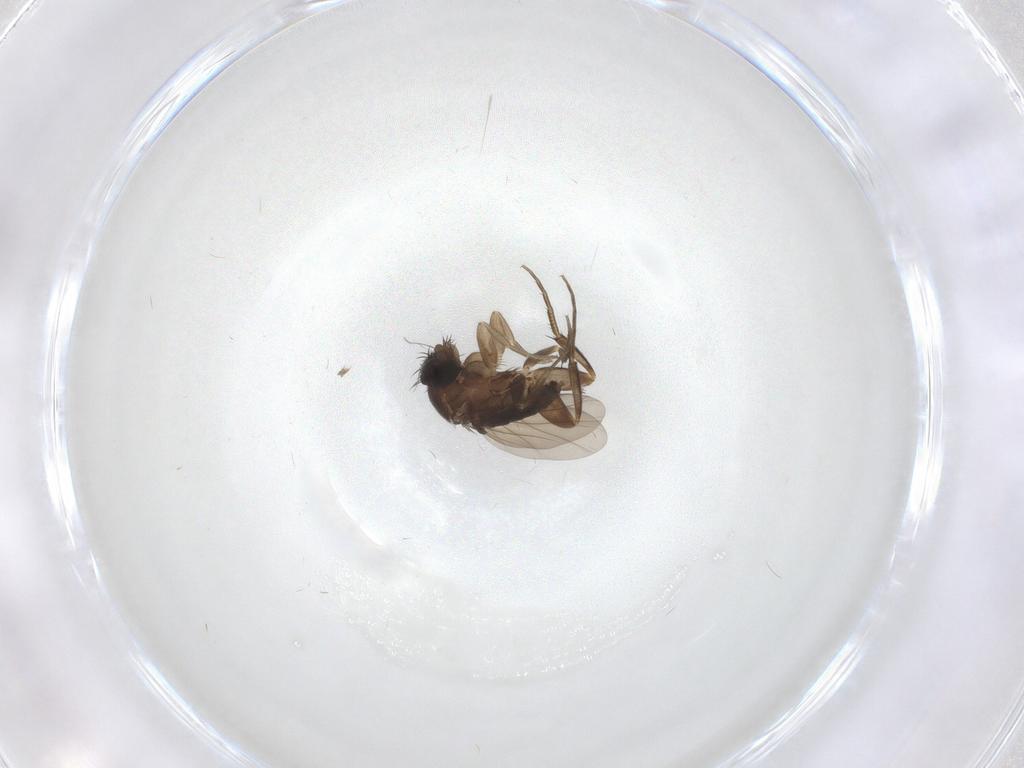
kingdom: Animalia
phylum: Arthropoda
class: Insecta
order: Diptera
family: Phoridae
